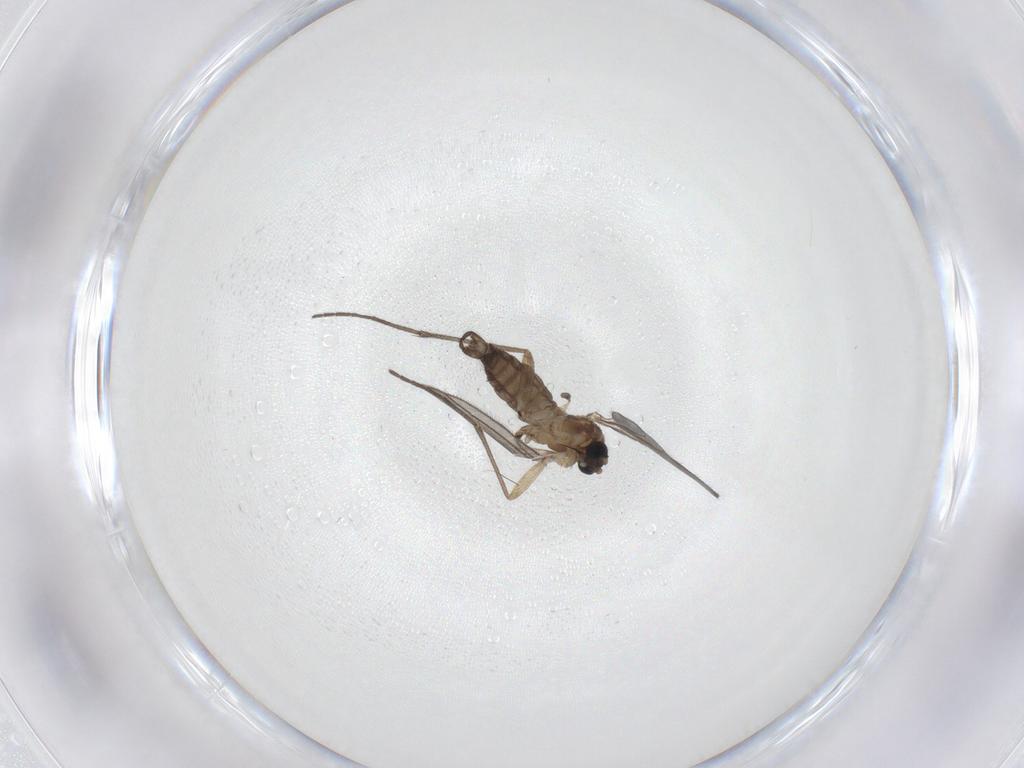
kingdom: Animalia
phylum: Arthropoda
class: Insecta
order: Diptera
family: Sciaridae
